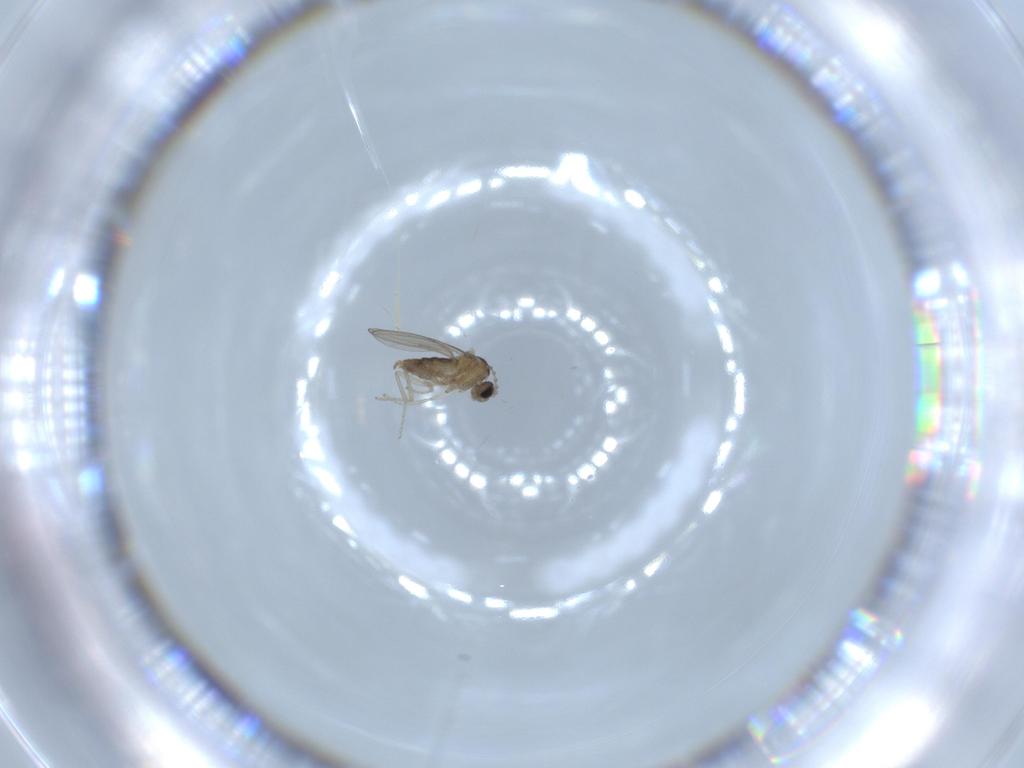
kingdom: Animalia
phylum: Arthropoda
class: Insecta
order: Diptera
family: Cecidomyiidae
